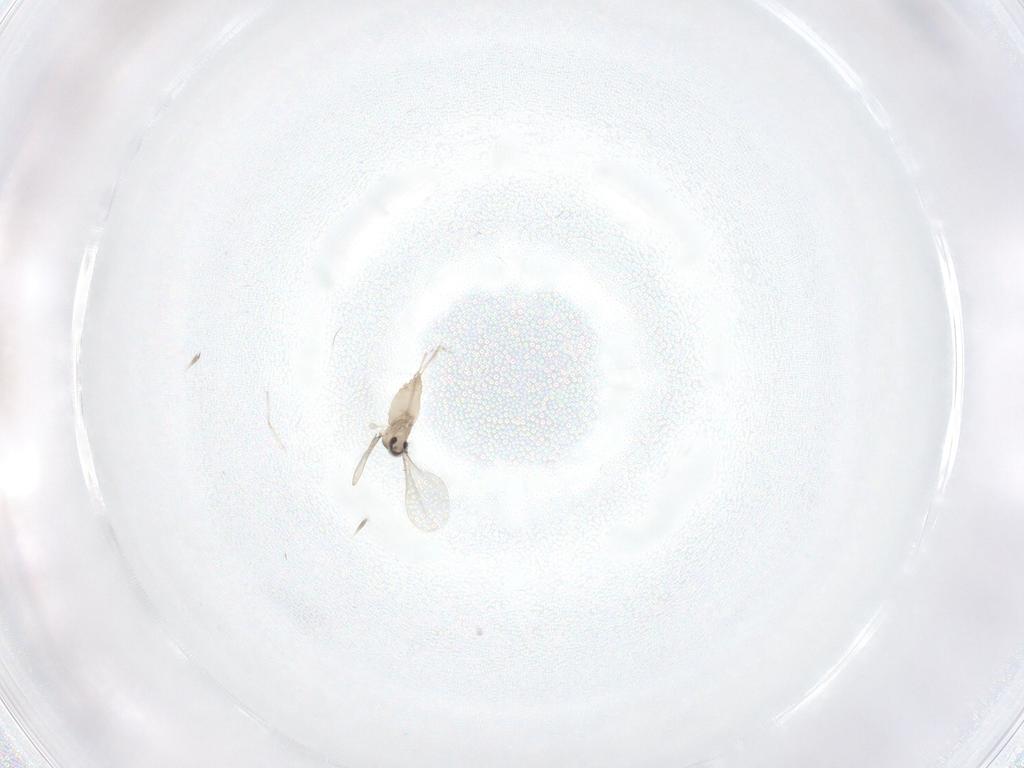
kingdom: Animalia
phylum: Arthropoda
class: Insecta
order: Diptera
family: Cecidomyiidae
